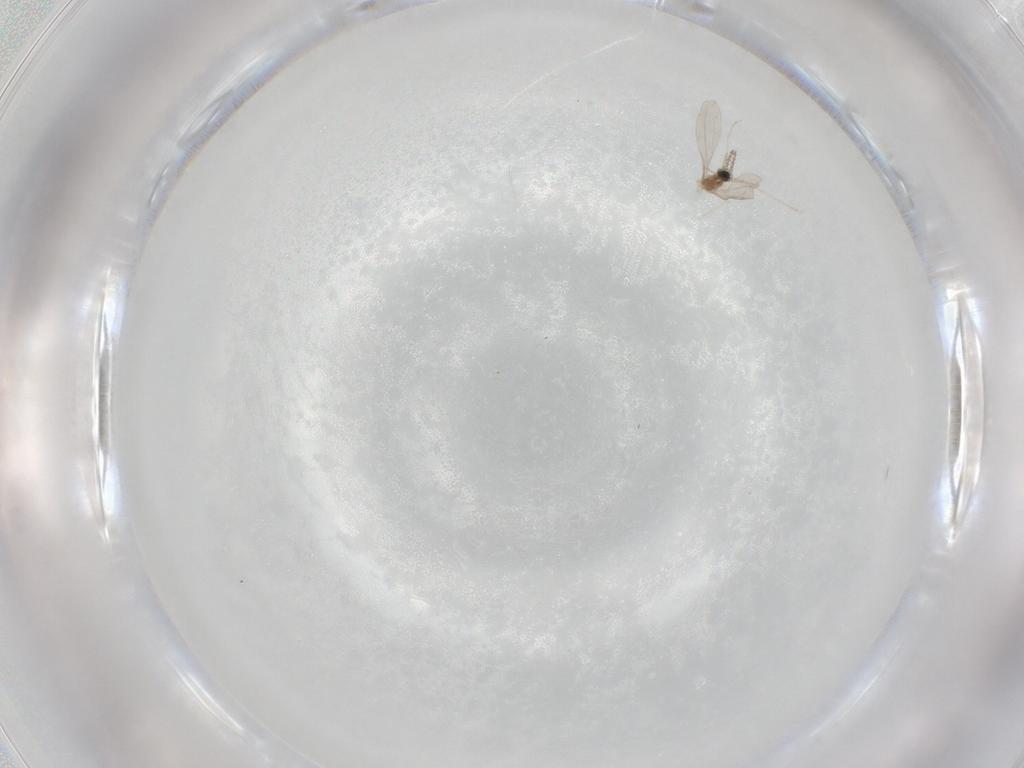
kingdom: Animalia
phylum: Arthropoda
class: Insecta
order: Diptera
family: Phoridae
